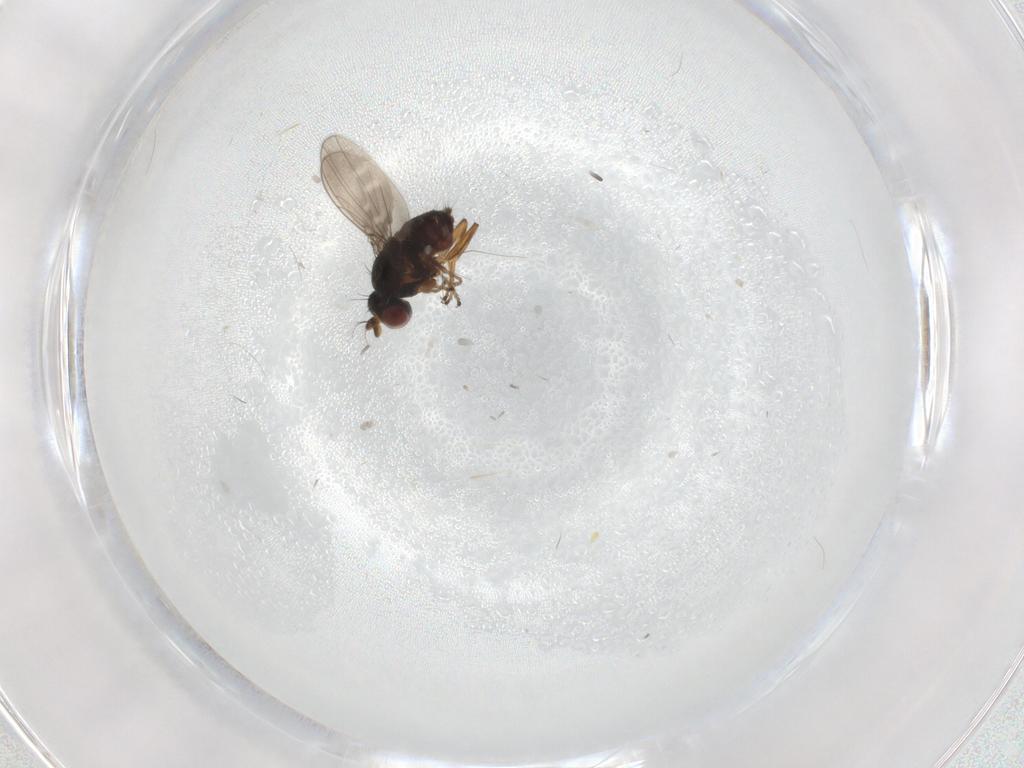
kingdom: Animalia
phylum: Arthropoda
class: Insecta
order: Diptera
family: Ephydridae
